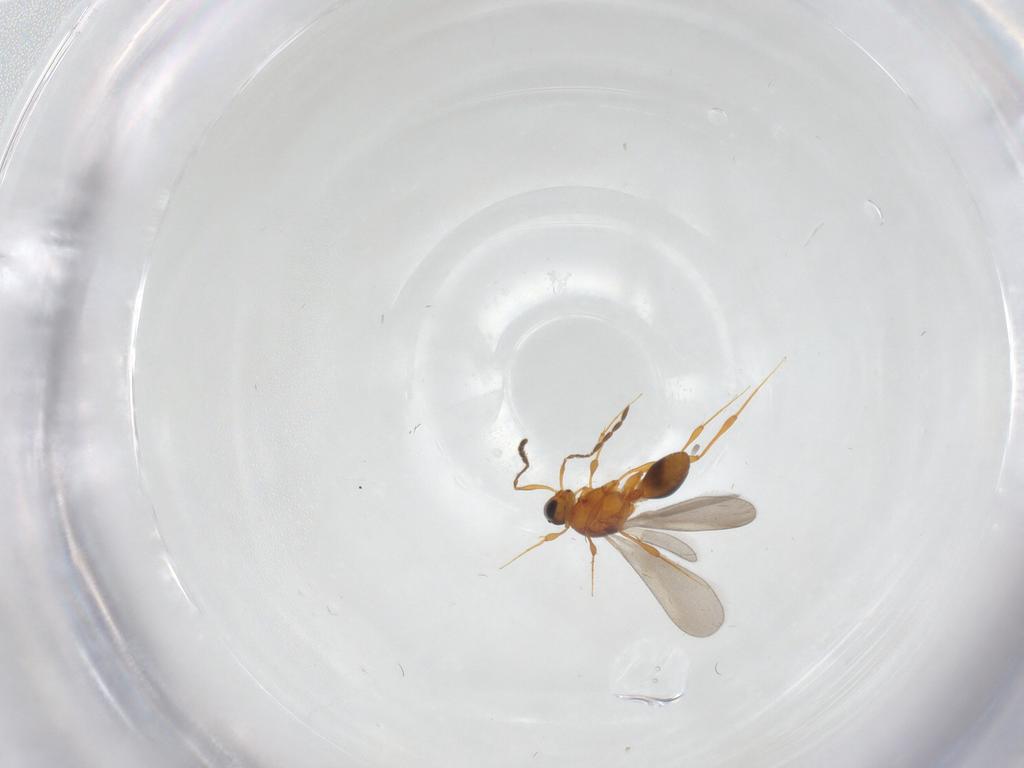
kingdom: Animalia
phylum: Arthropoda
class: Insecta
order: Hymenoptera
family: Platygastridae
